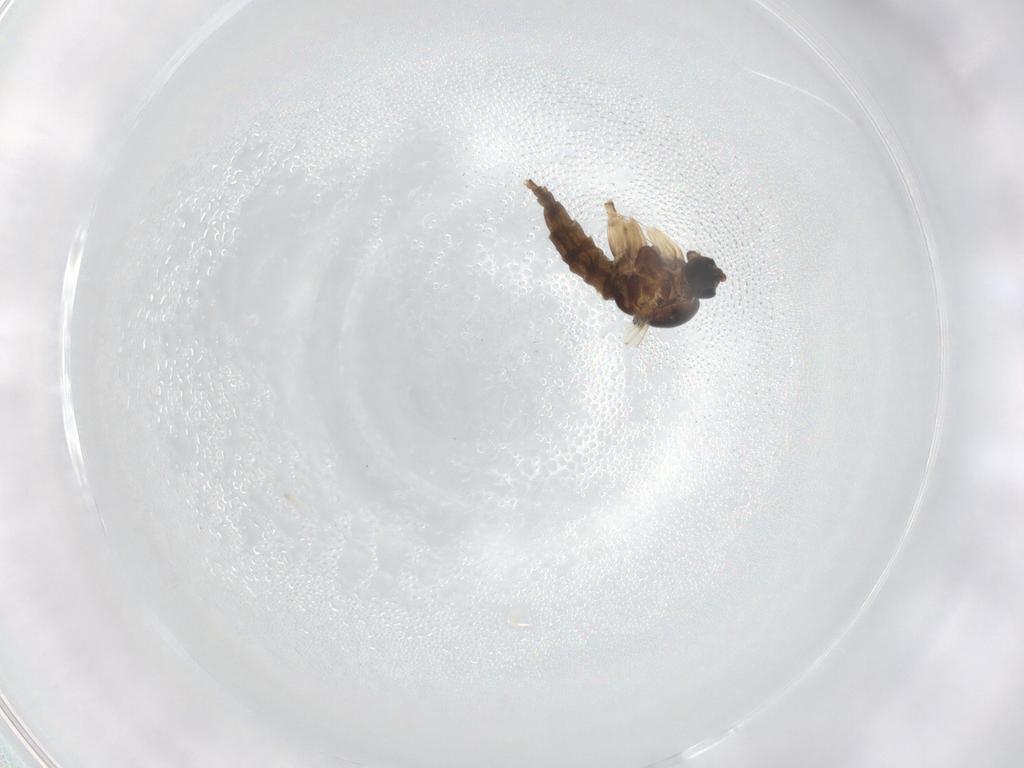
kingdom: Animalia
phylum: Arthropoda
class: Insecta
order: Diptera
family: Sciaridae
